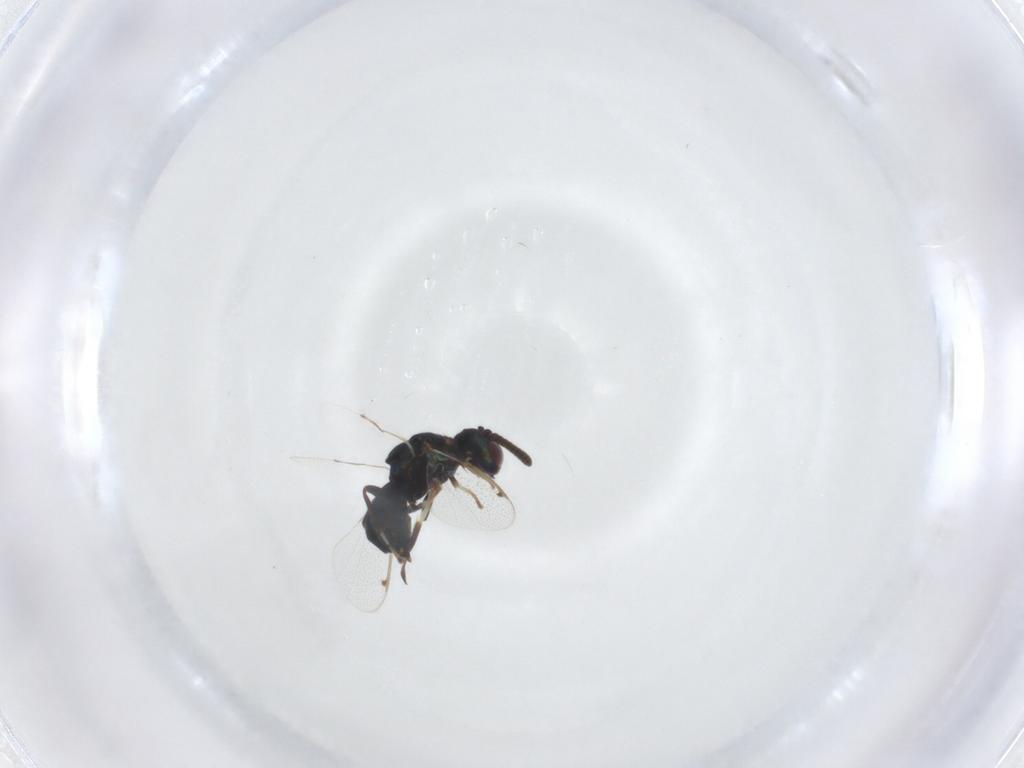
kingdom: Animalia
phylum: Arthropoda
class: Insecta
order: Hymenoptera
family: Torymidae
